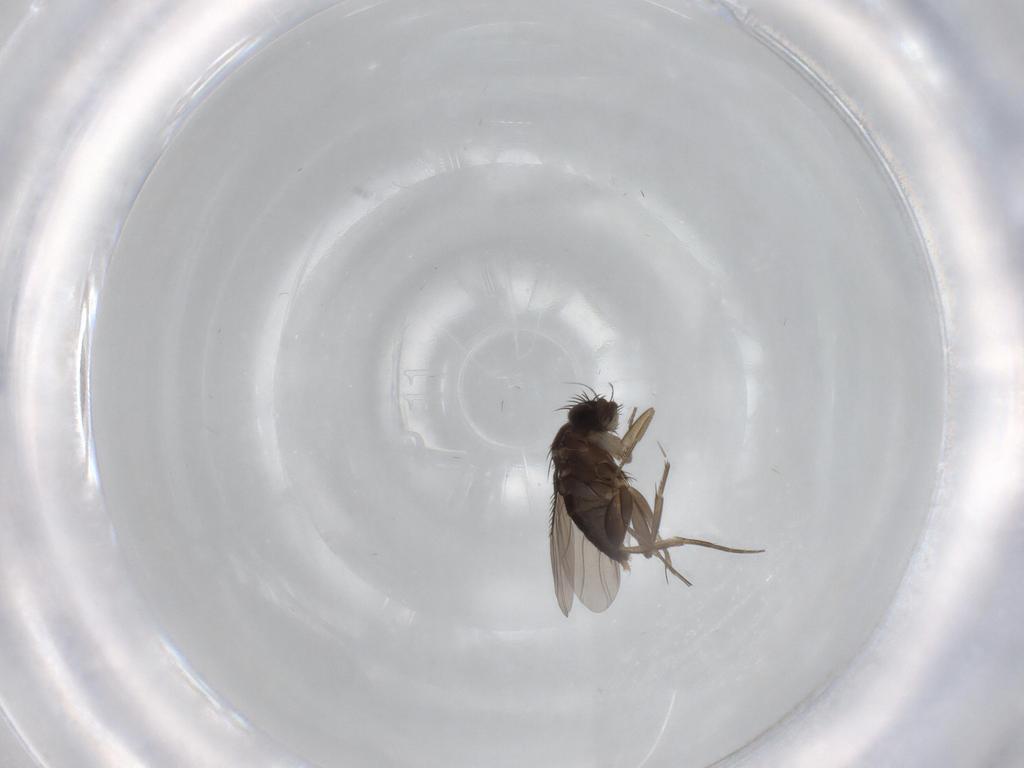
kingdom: Animalia
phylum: Arthropoda
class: Insecta
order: Diptera
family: Phoridae
